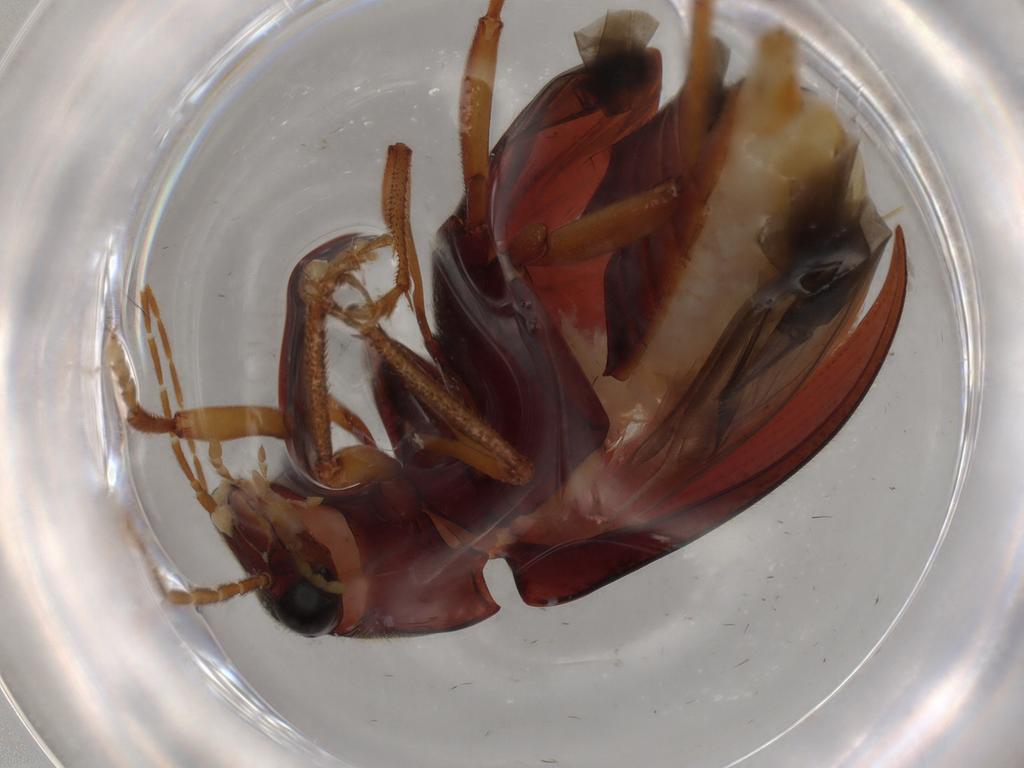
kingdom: Animalia
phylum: Arthropoda
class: Insecta
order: Coleoptera
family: Ptilodactylidae
